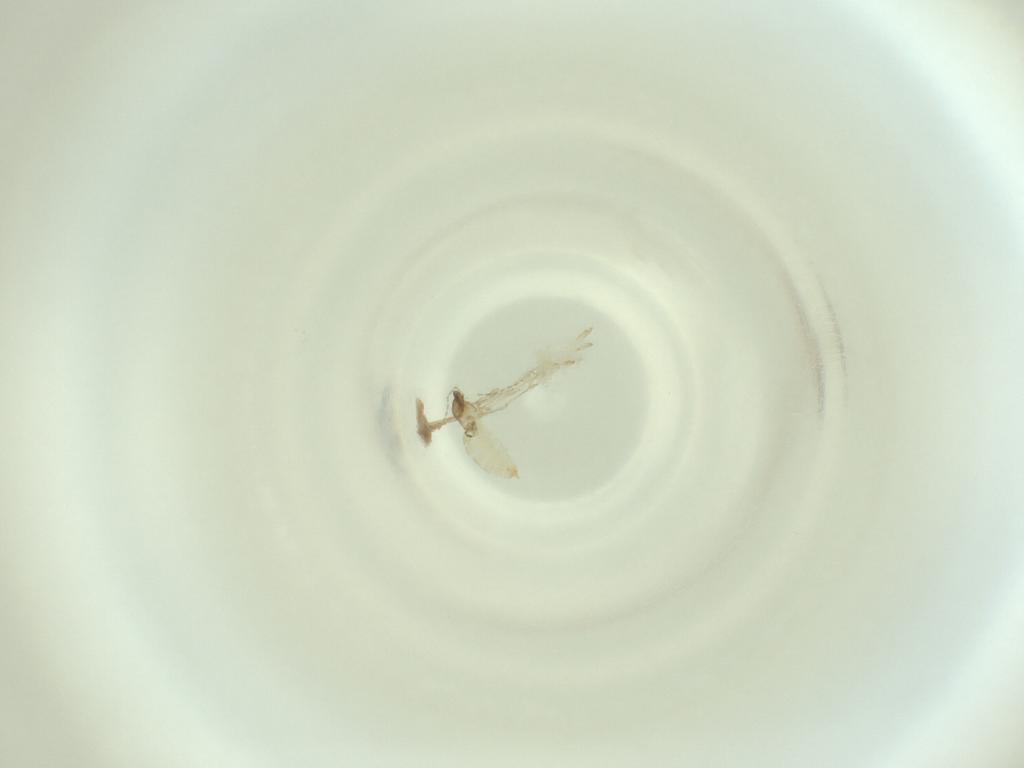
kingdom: Animalia
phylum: Arthropoda
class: Insecta
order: Diptera
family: Cecidomyiidae
